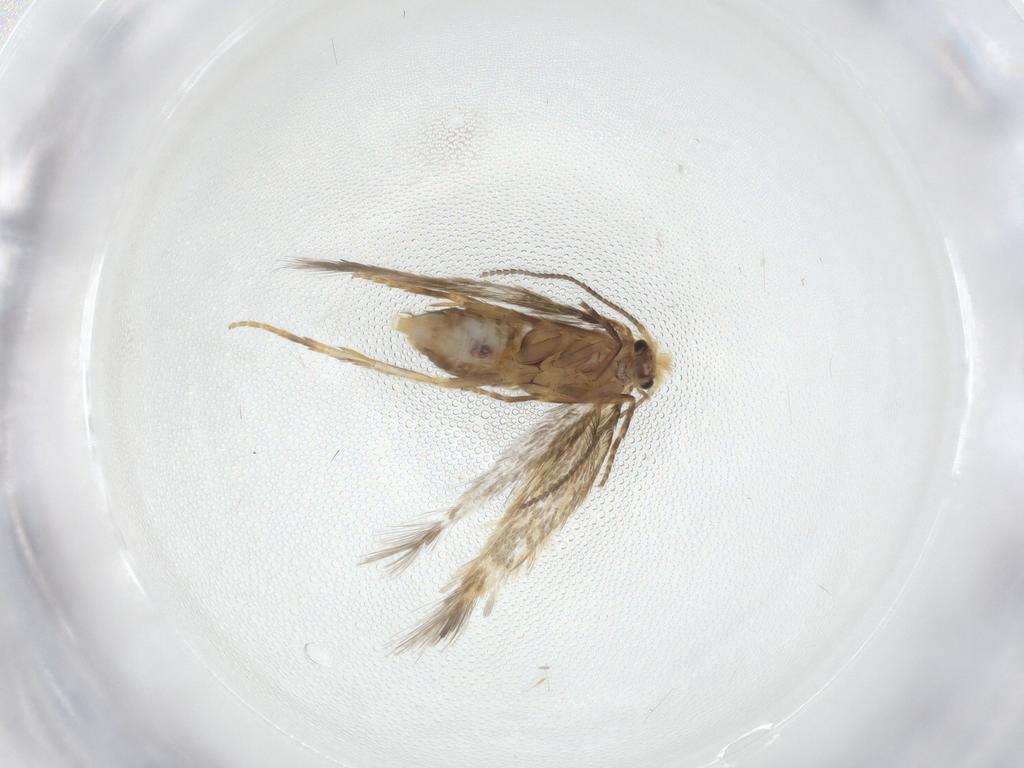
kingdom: Animalia
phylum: Arthropoda
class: Insecta
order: Lepidoptera
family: Nepticulidae
